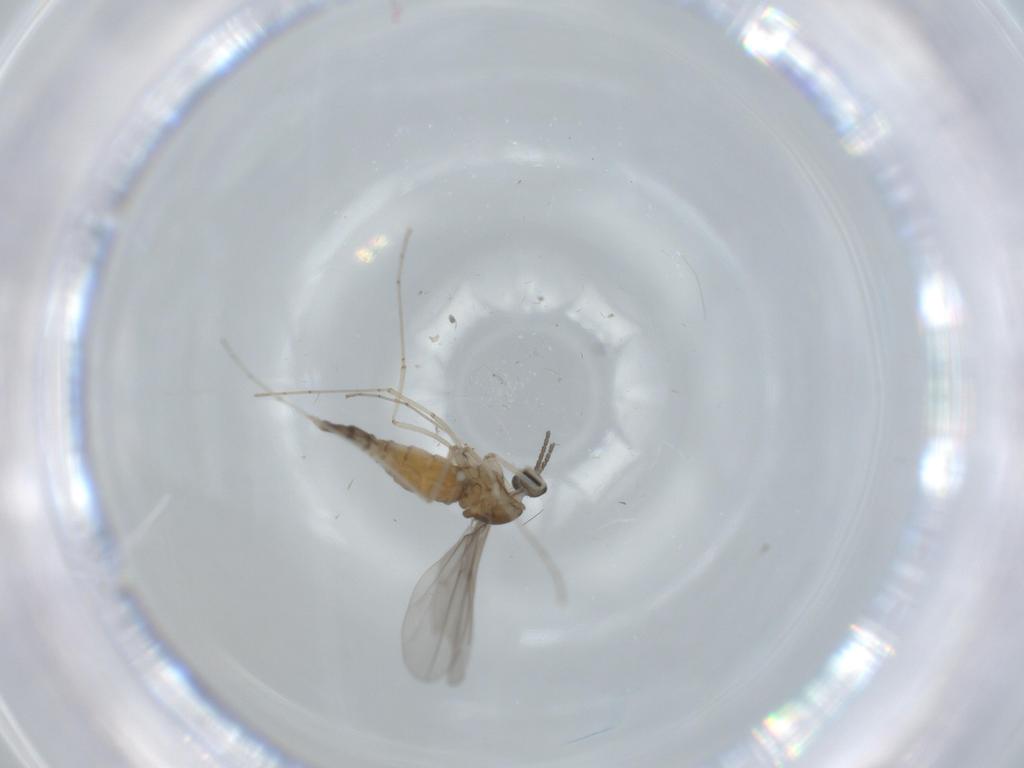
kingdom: Animalia
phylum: Arthropoda
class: Insecta
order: Diptera
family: Cecidomyiidae
